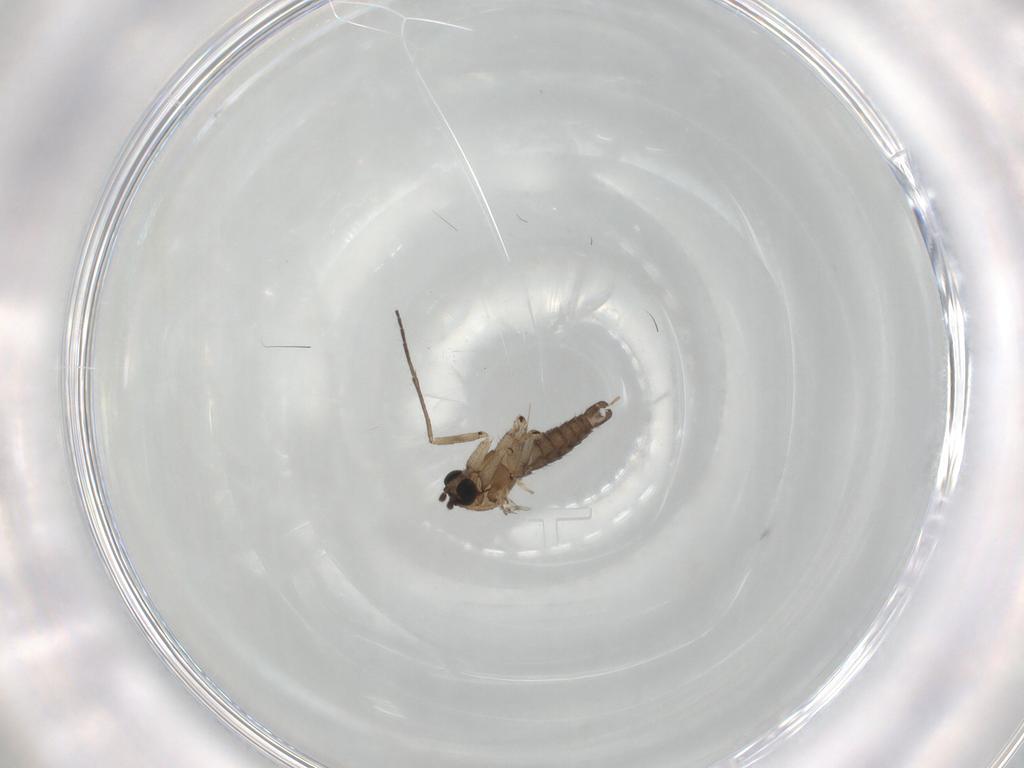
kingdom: Animalia
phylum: Arthropoda
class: Insecta
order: Diptera
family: Sciaridae
